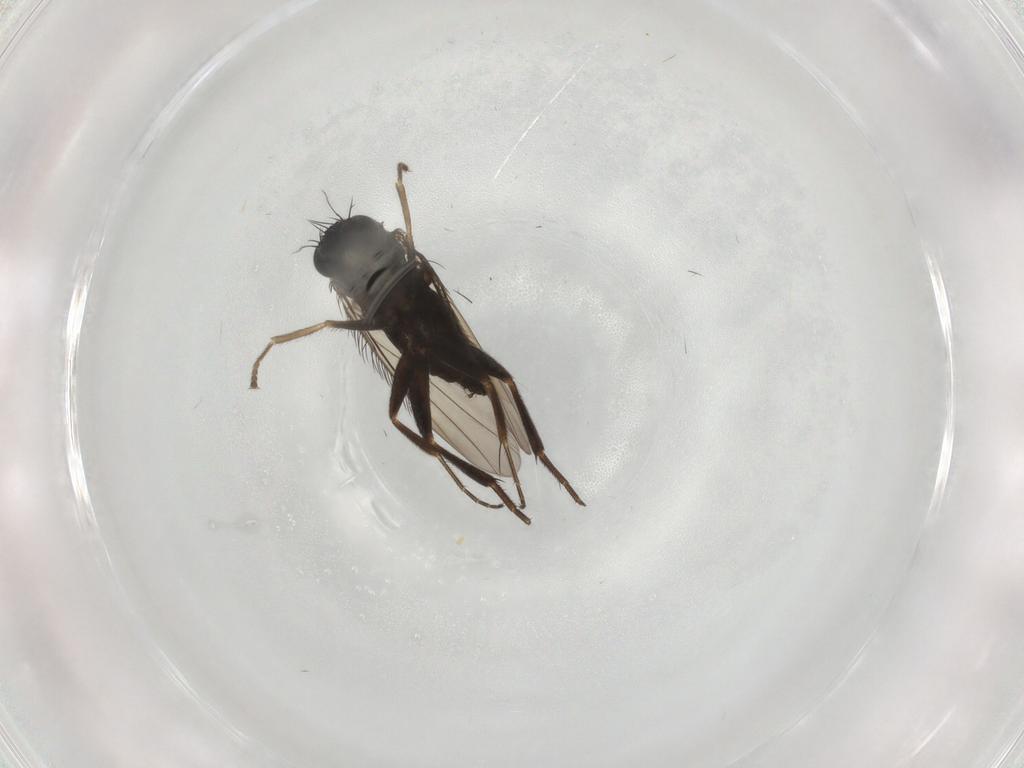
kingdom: Animalia
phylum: Arthropoda
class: Insecta
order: Diptera
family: Phoridae
